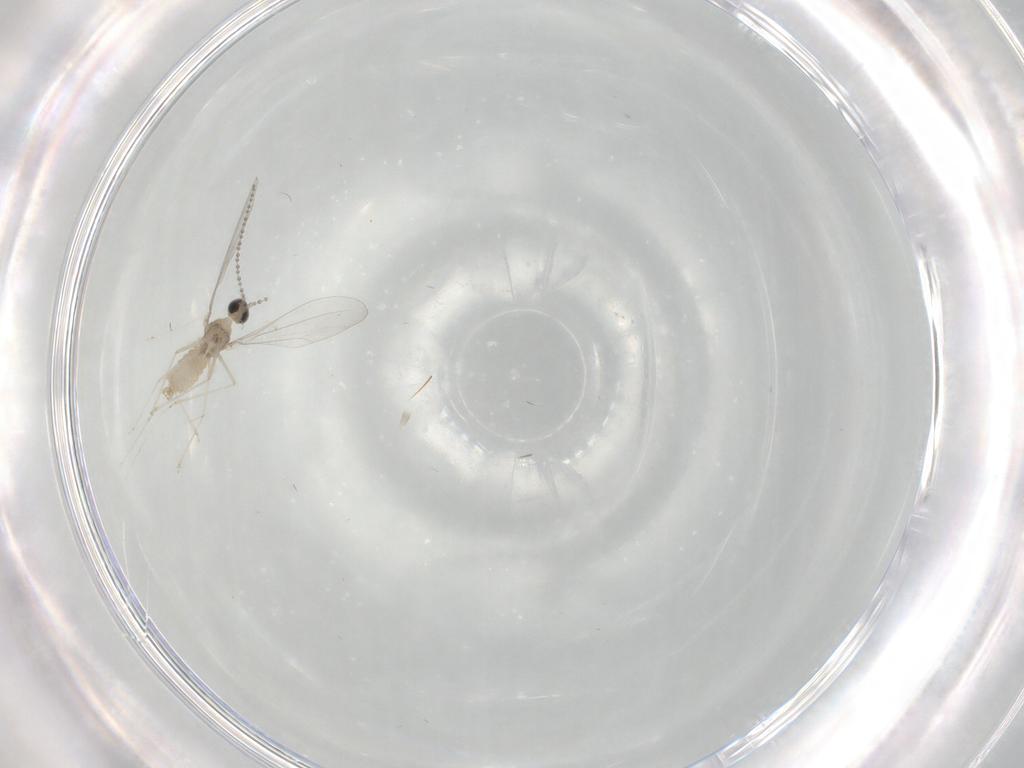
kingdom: Animalia
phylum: Arthropoda
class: Insecta
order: Diptera
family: Cecidomyiidae
